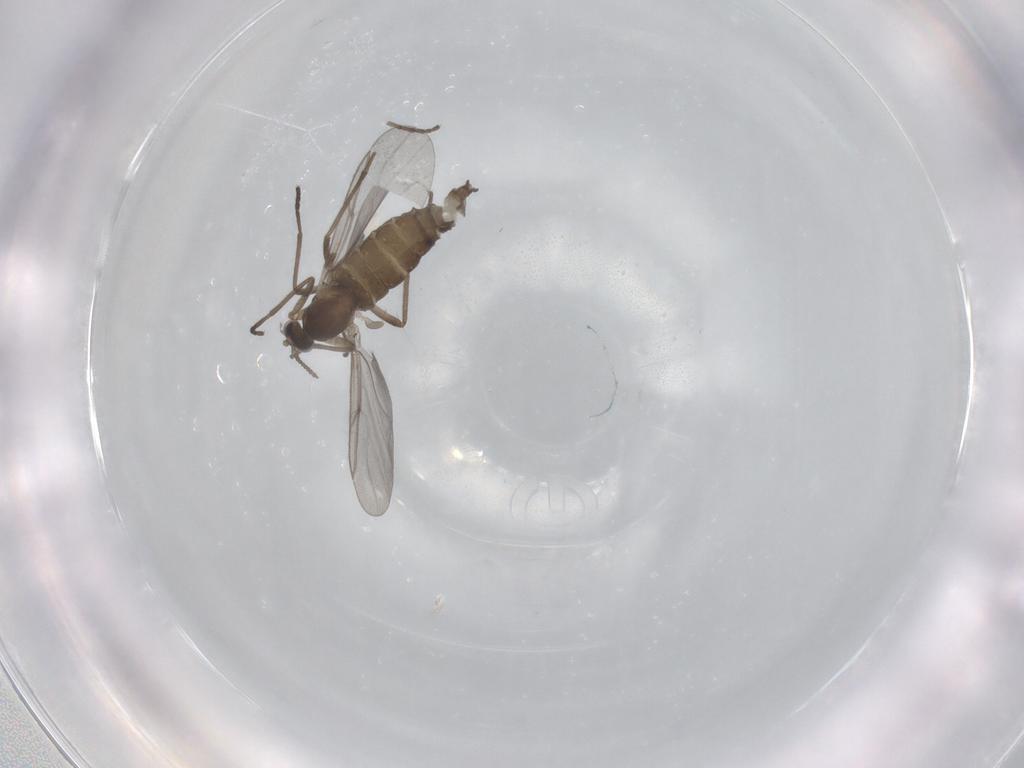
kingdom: Animalia
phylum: Arthropoda
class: Insecta
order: Diptera
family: Cecidomyiidae
